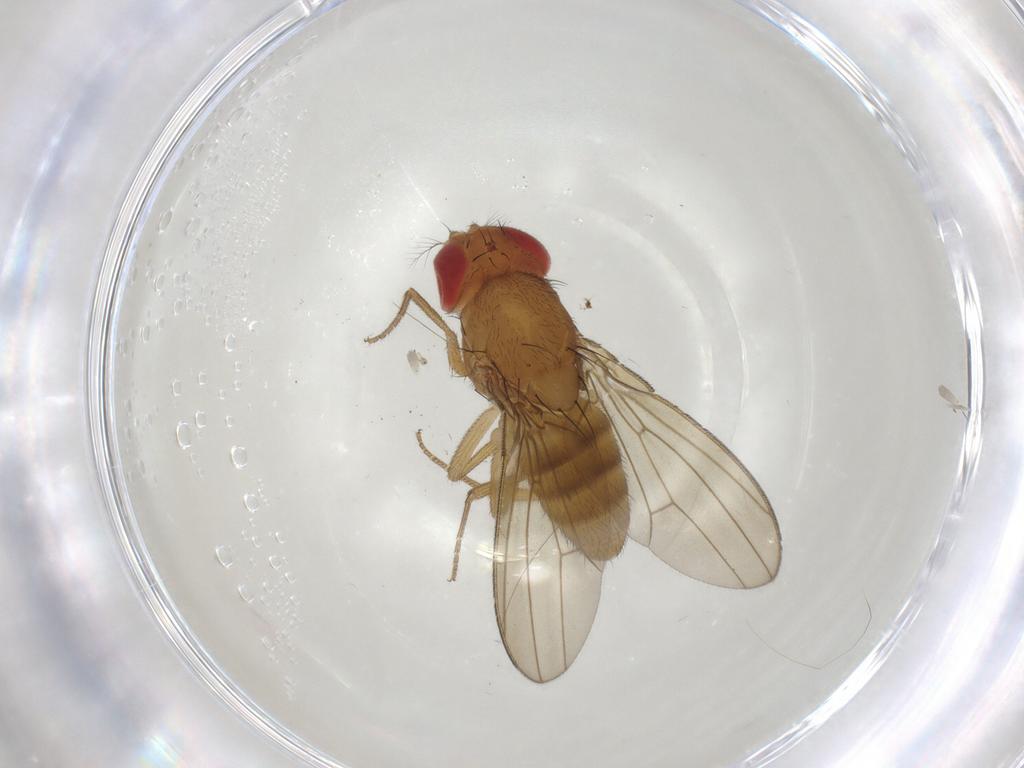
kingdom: Animalia
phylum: Arthropoda
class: Insecta
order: Diptera
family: Drosophilidae
